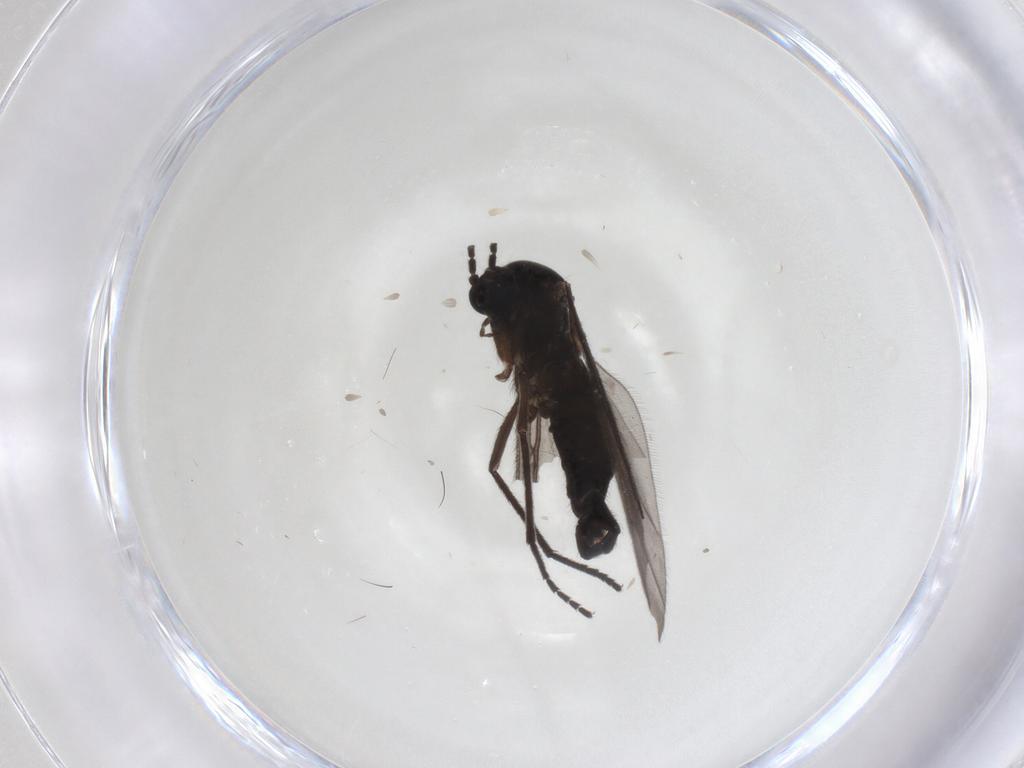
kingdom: Animalia
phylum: Arthropoda
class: Insecta
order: Diptera
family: Sciaridae
